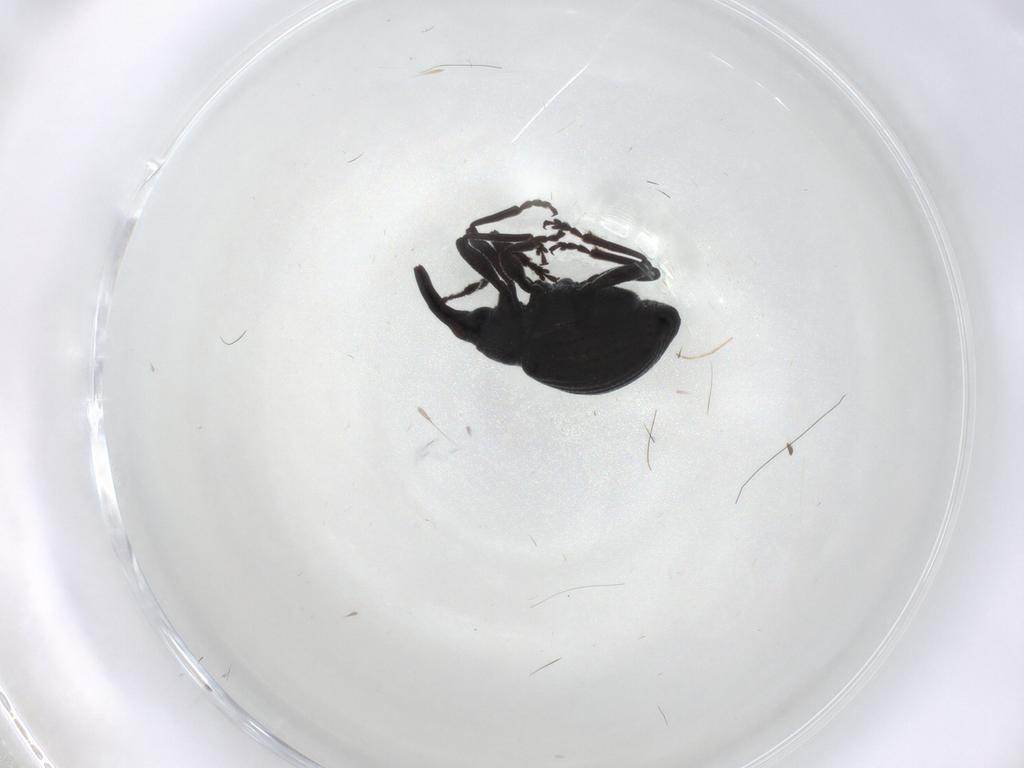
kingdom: Animalia
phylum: Arthropoda
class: Insecta
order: Coleoptera
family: Brentidae
